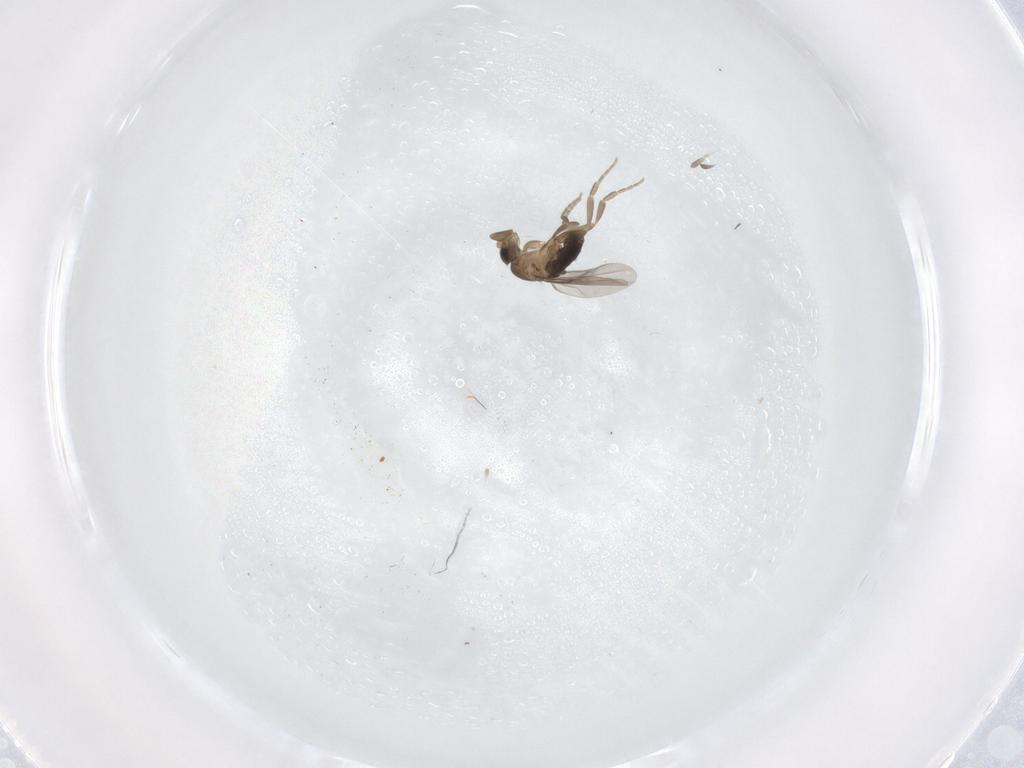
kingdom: Animalia
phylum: Arthropoda
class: Insecta
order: Diptera
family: Phoridae
